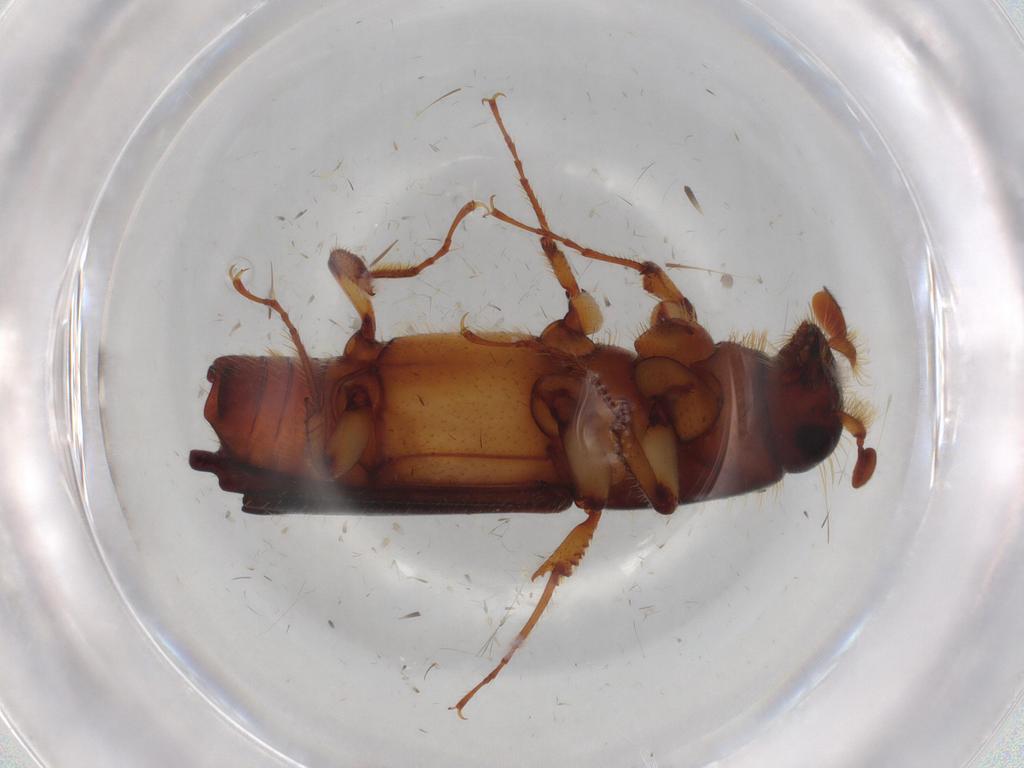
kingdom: Animalia
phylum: Arthropoda
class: Insecta
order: Coleoptera
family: Curculionidae
